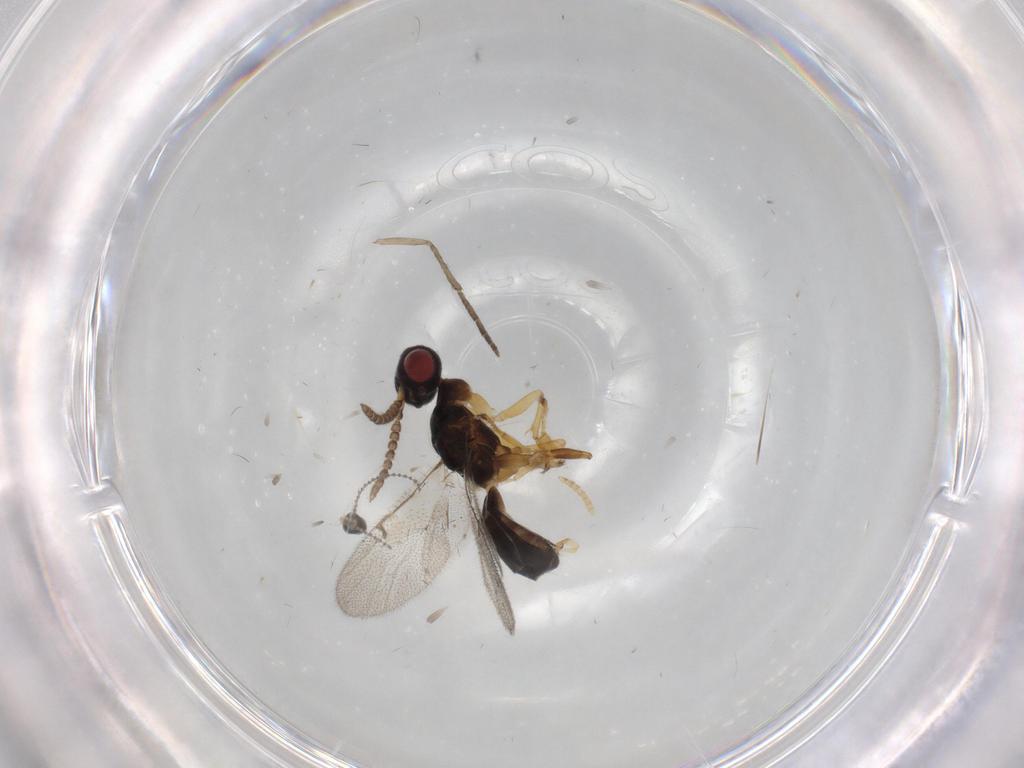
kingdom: Animalia
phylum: Arthropoda
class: Insecta
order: Hymenoptera
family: Agaonidae
